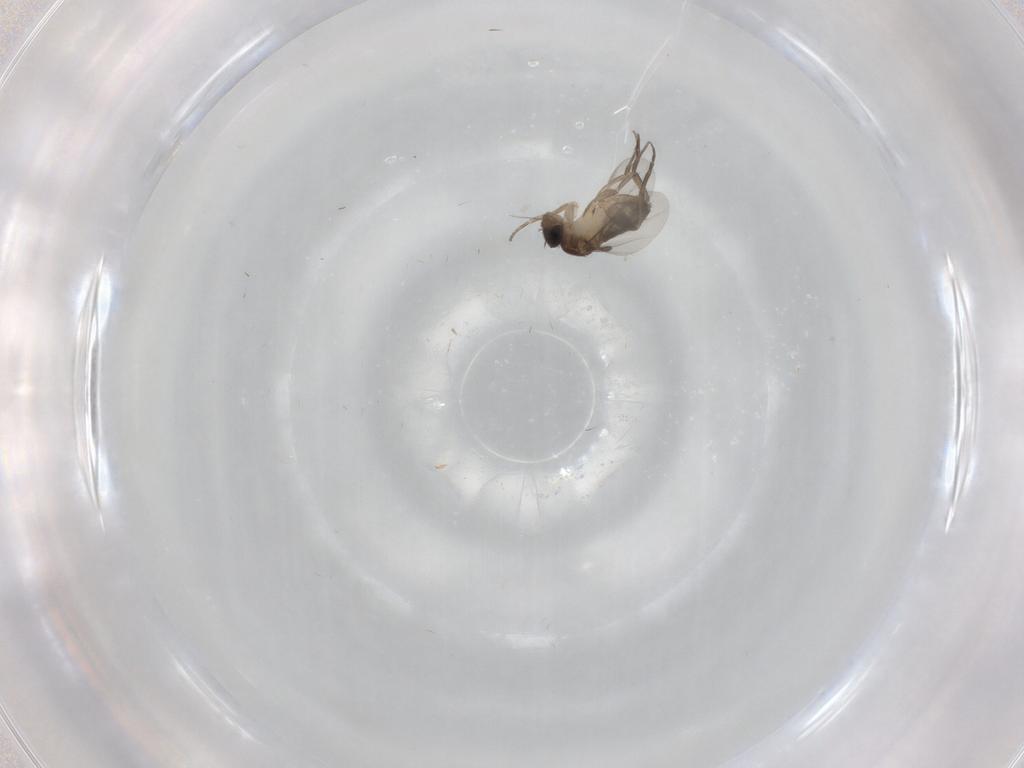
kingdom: Animalia
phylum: Arthropoda
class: Insecta
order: Diptera
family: Phoridae
